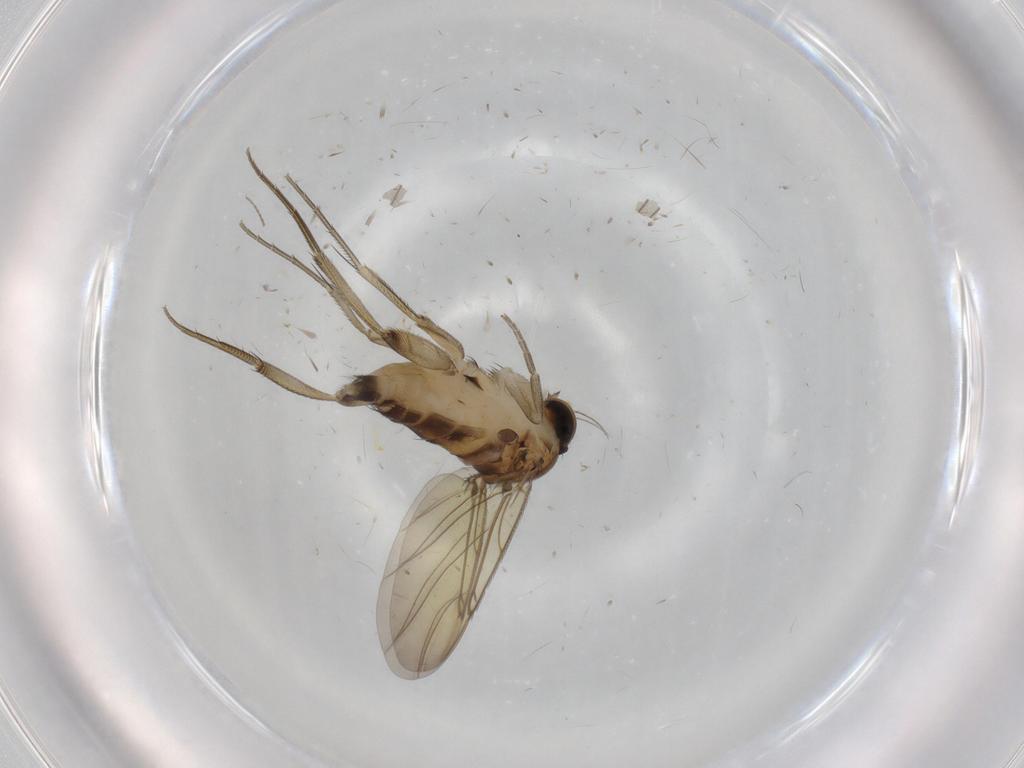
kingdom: Animalia
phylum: Arthropoda
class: Insecta
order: Diptera
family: Phoridae
